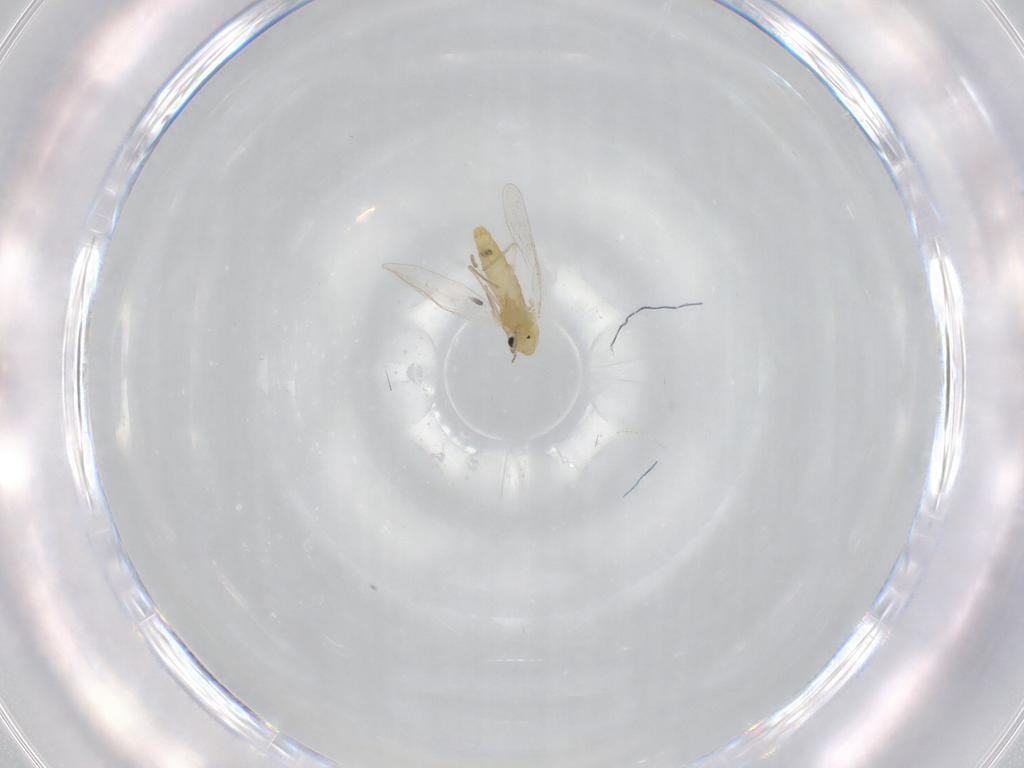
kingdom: Animalia
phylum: Arthropoda
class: Insecta
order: Diptera
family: Chironomidae
